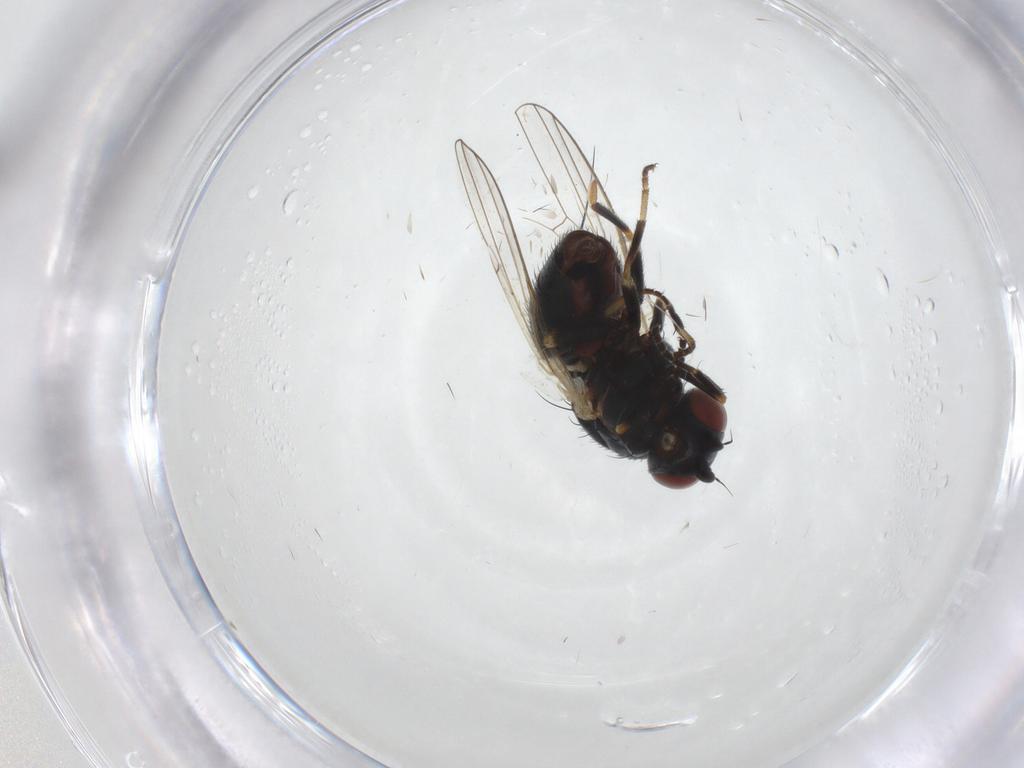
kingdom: Animalia
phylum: Arthropoda
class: Insecta
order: Diptera
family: Chamaemyiidae
